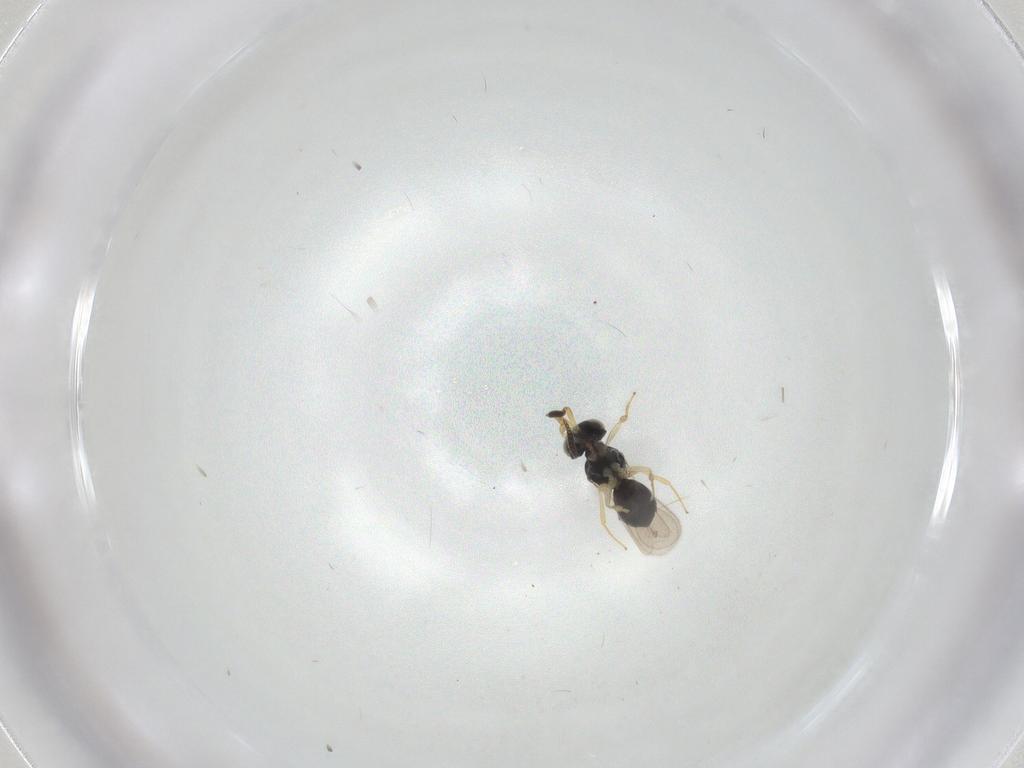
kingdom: Animalia
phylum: Arthropoda
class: Insecta
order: Hymenoptera
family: Scelionidae
